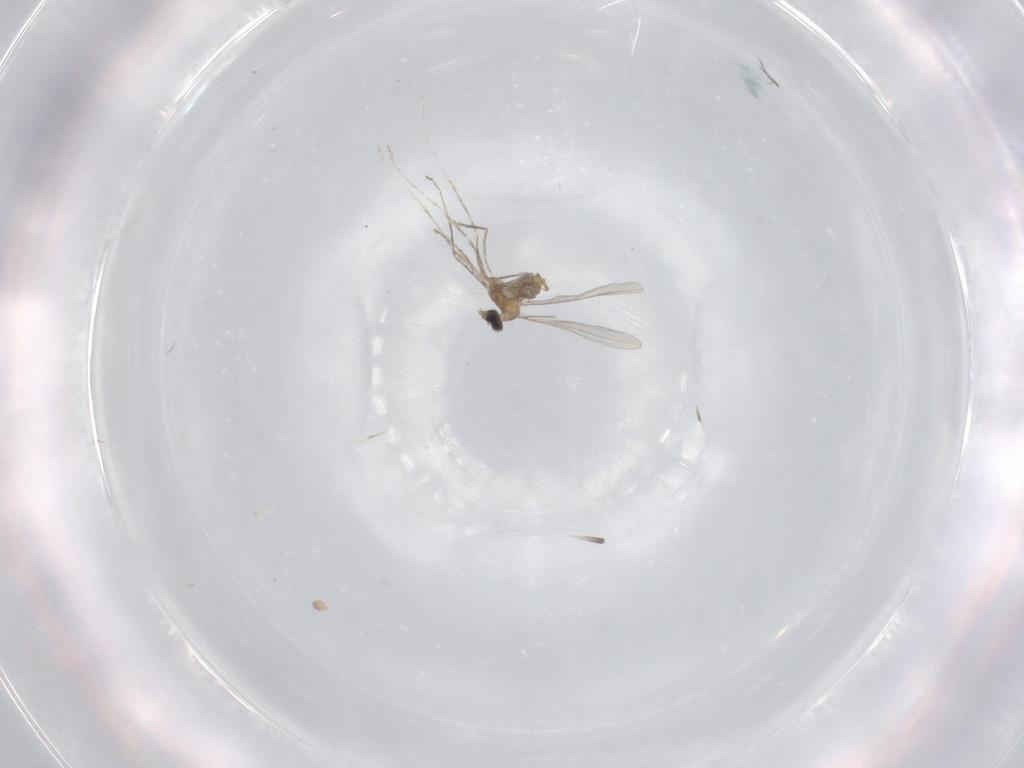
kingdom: Animalia
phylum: Arthropoda
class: Insecta
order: Diptera
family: Cecidomyiidae
